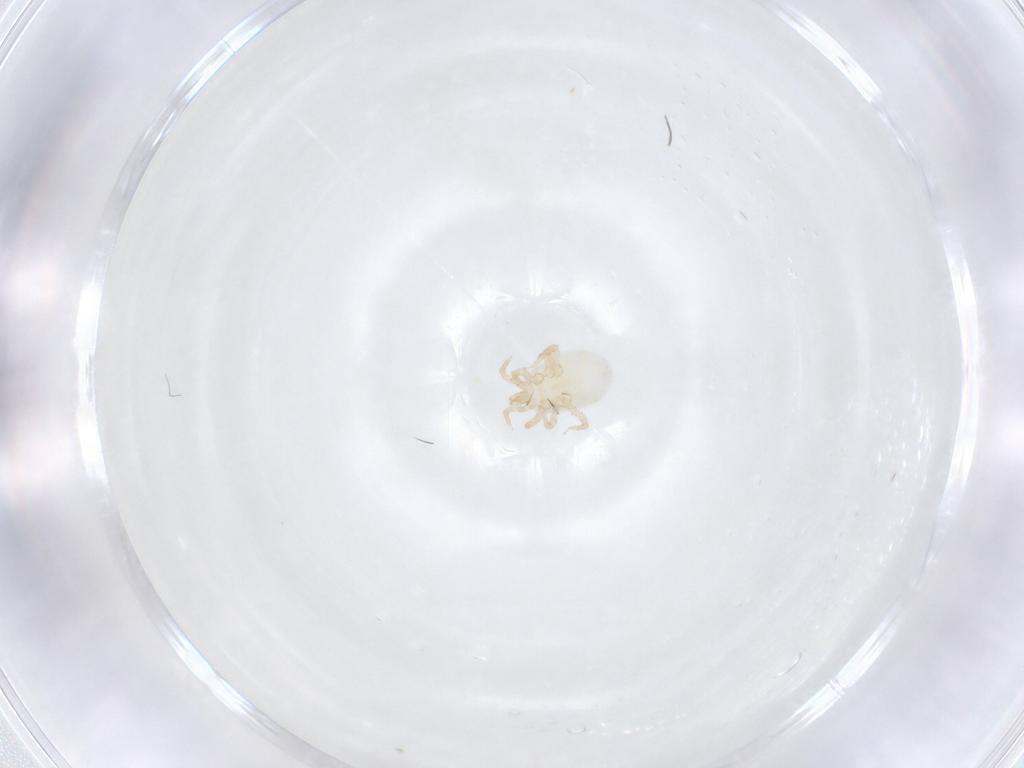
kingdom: Animalia
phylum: Arthropoda
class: Arachnida
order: Mesostigmata
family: Melicharidae
